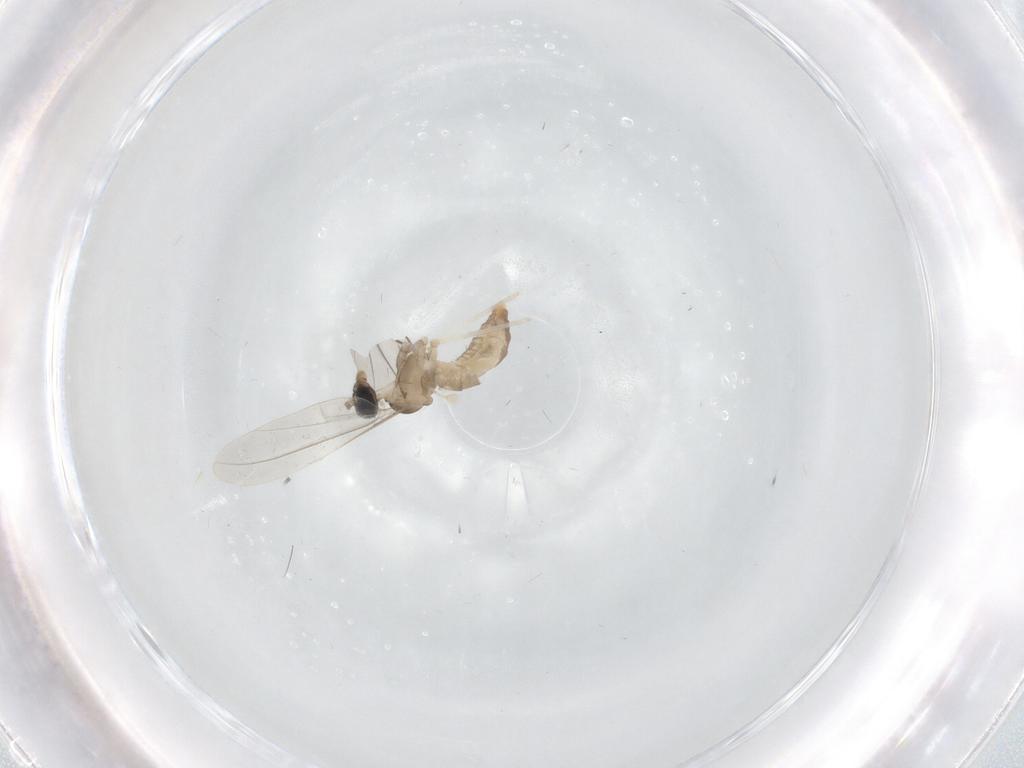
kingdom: Animalia
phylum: Arthropoda
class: Insecta
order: Diptera
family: Cecidomyiidae
